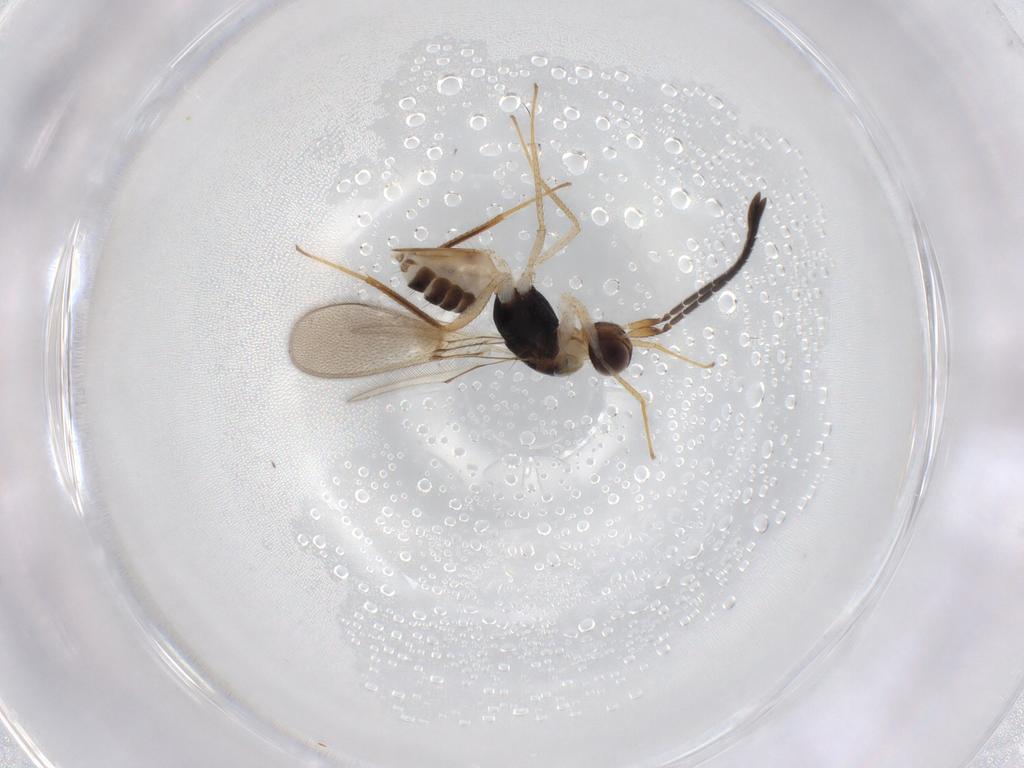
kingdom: Animalia
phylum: Arthropoda
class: Insecta
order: Hymenoptera
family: Mymaridae
